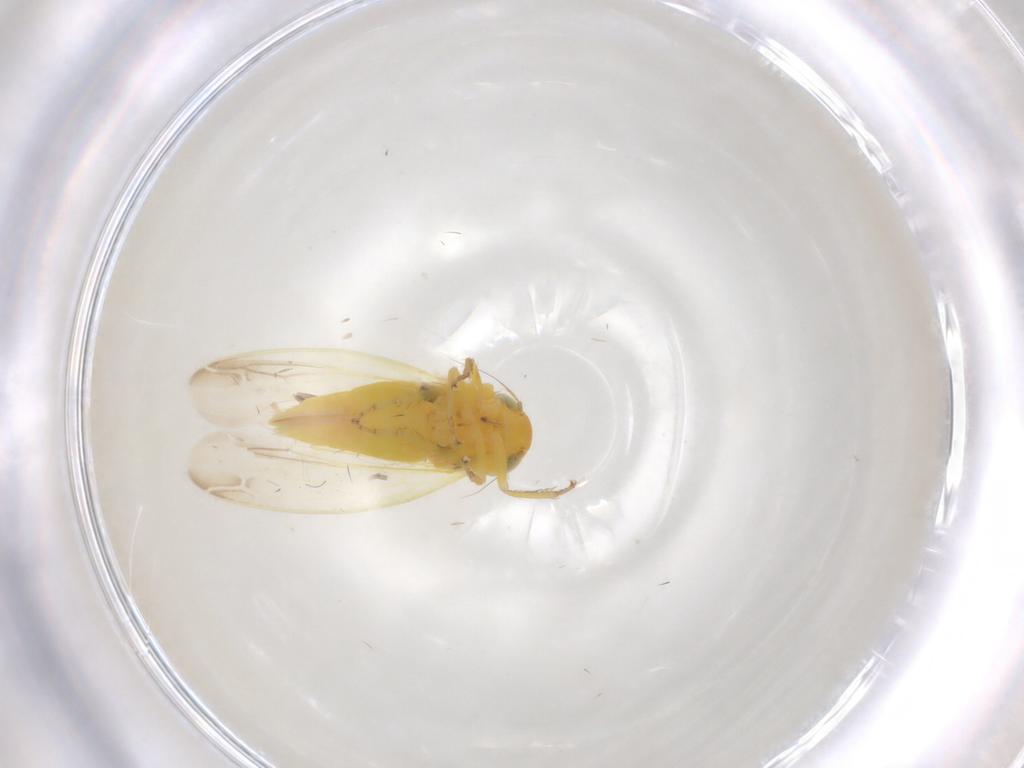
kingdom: Animalia
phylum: Arthropoda
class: Insecta
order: Hemiptera
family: Cicadellidae
